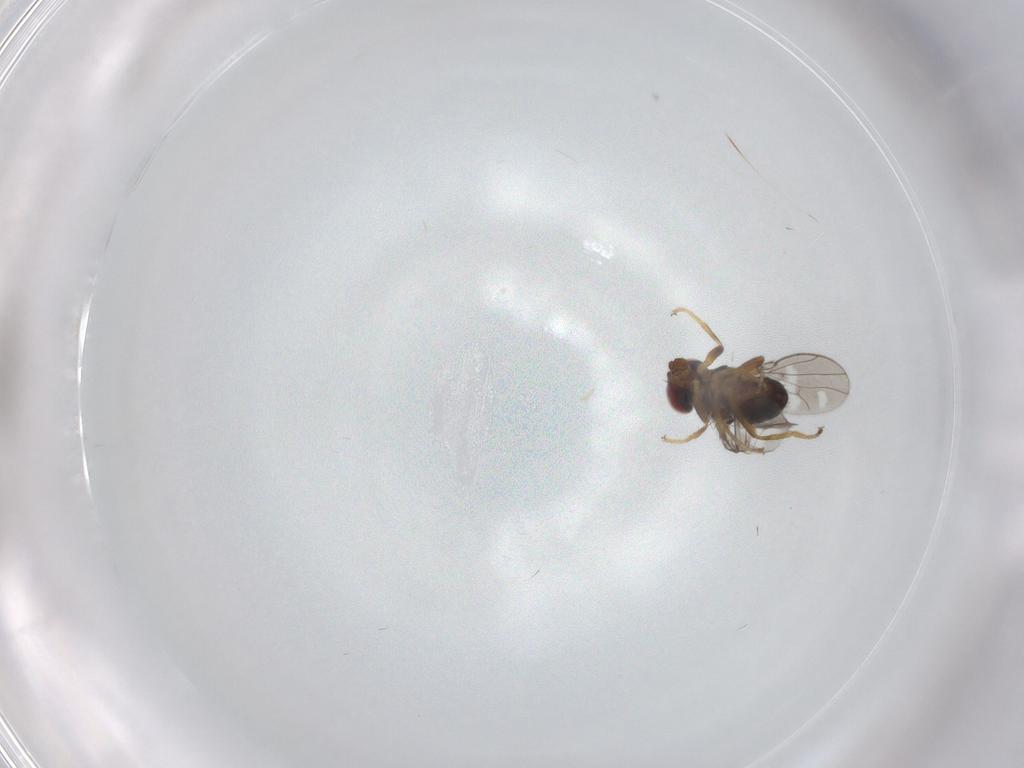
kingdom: Animalia
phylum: Arthropoda
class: Insecta
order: Diptera
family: Ephydridae
